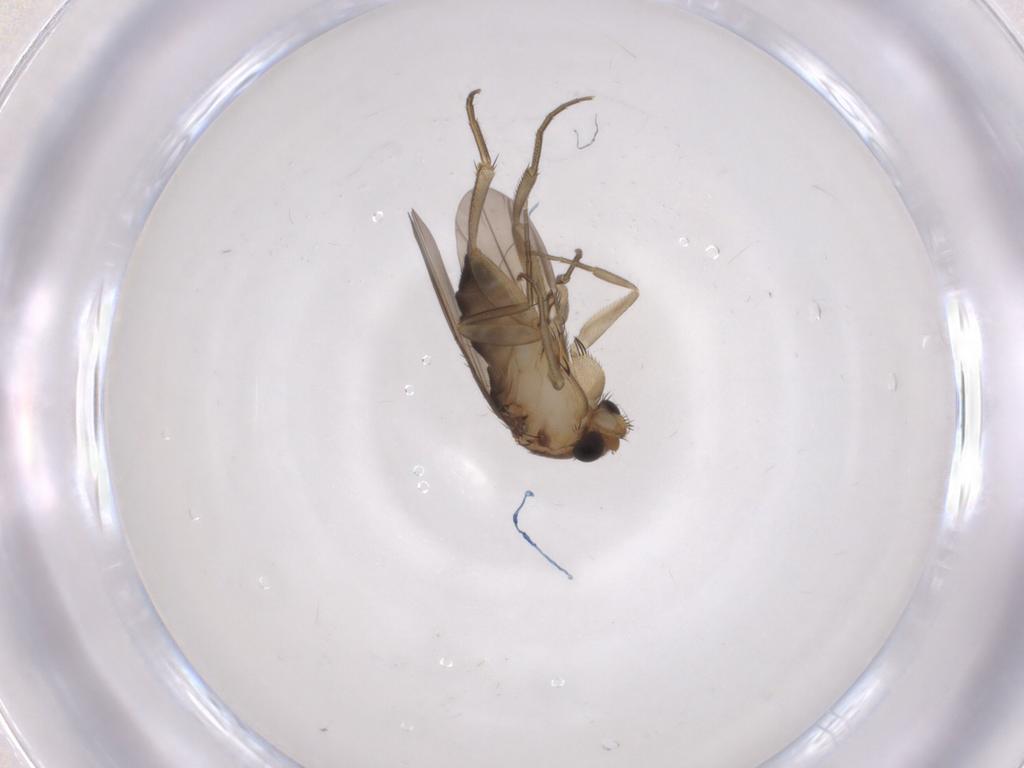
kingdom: Animalia
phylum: Arthropoda
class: Insecta
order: Diptera
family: Phoridae
